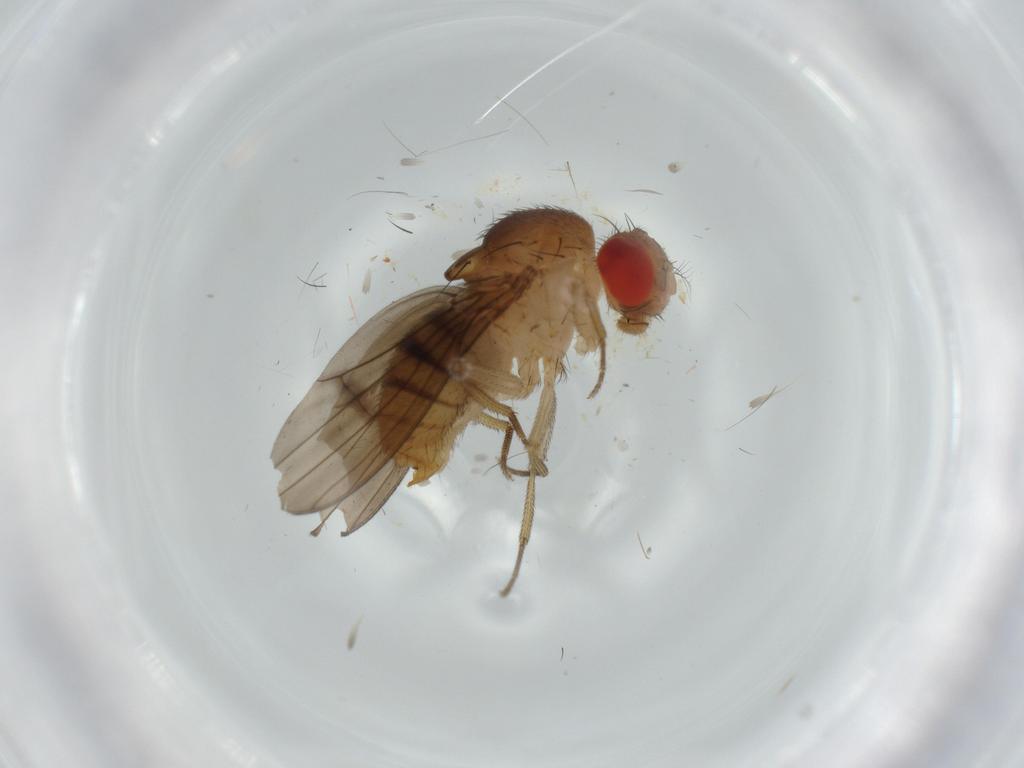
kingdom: Animalia
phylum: Arthropoda
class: Insecta
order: Diptera
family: Drosophilidae
